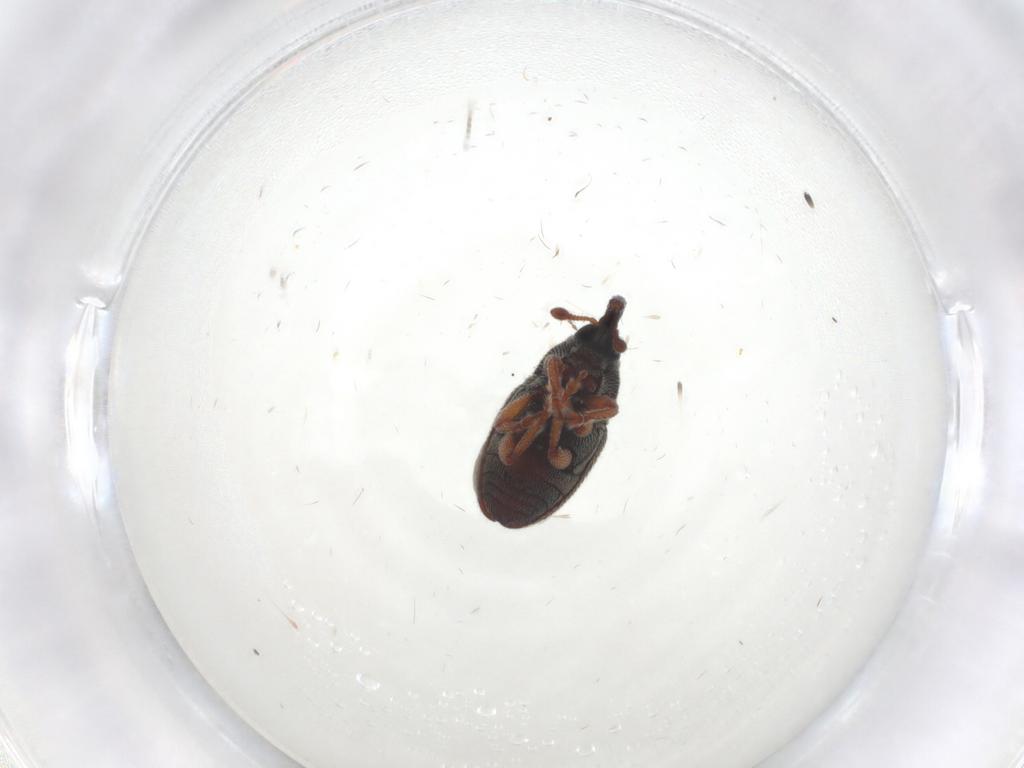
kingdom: Animalia
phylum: Arthropoda
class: Insecta
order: Coleoptera
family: Curculionidae
